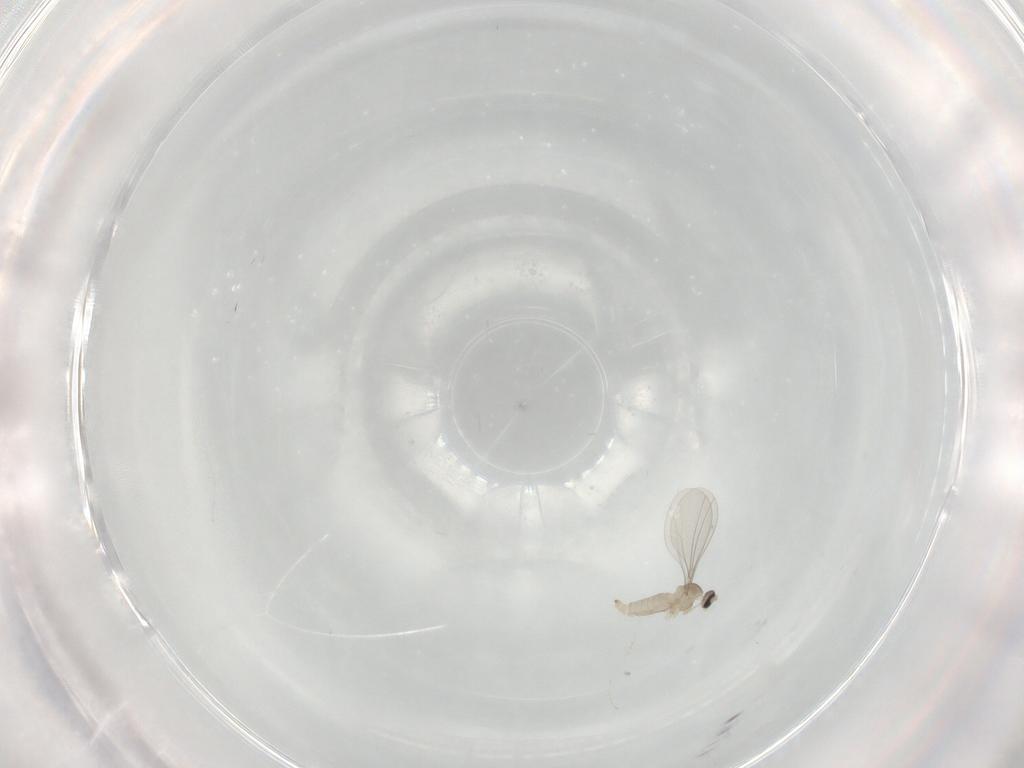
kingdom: Animalia
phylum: Arthropoda
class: Insecta
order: Diptera
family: Cecidomyiidae
